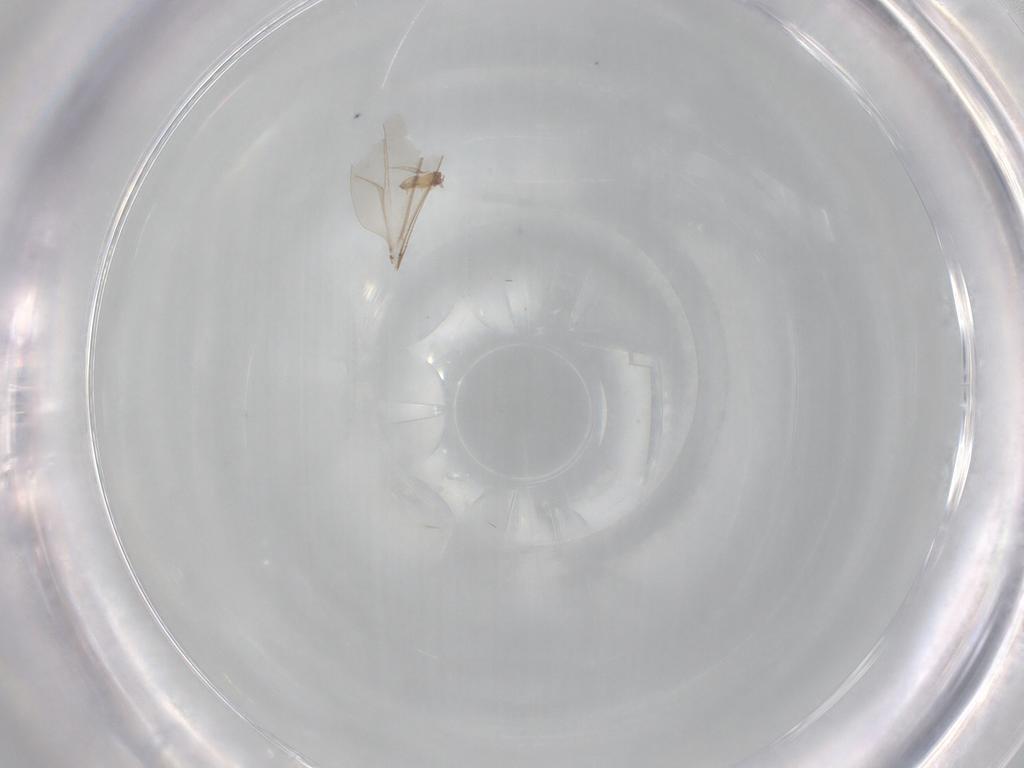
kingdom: Animalia
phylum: Arthropoda
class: Insecta
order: Hymenoptera
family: Trichogrammatidae
